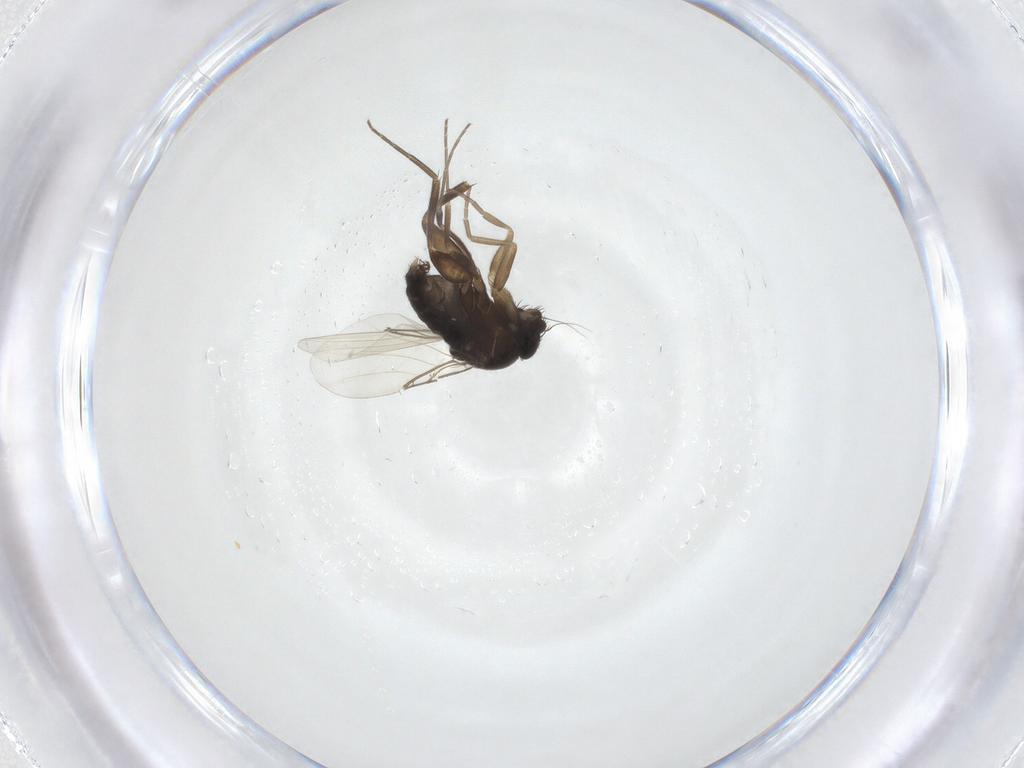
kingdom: Animalia
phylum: Arthropoda
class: Insecta
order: Diptera
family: Phoridae
